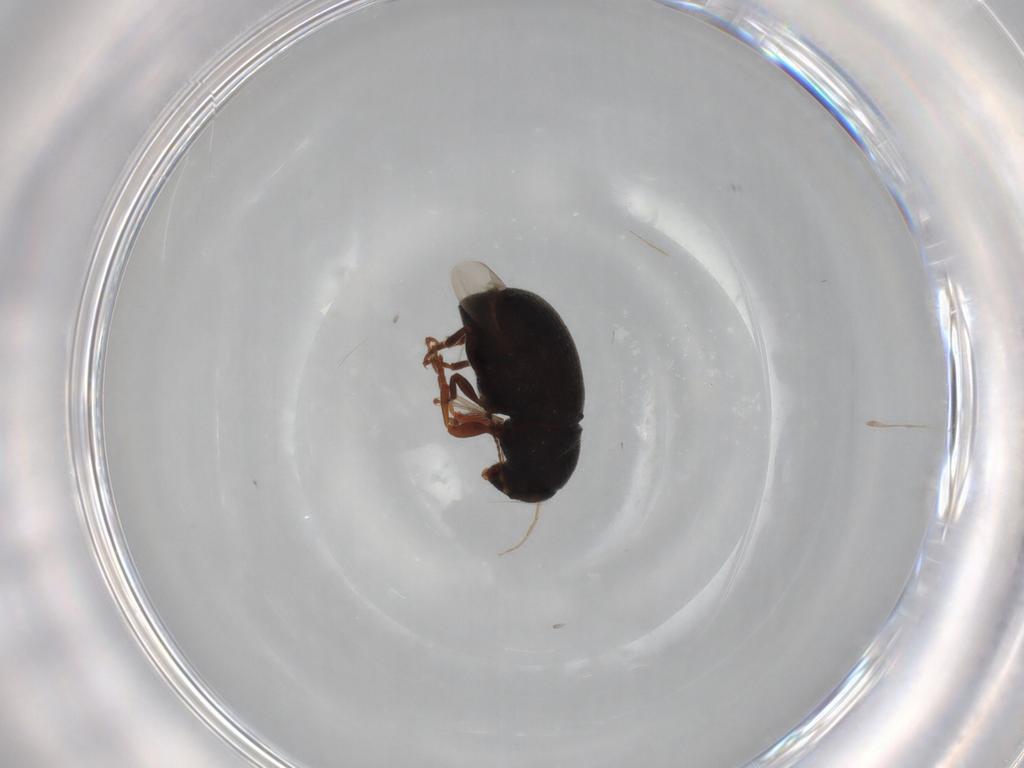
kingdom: Animalia
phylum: Arthropoda
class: Insecta
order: Coleoptera
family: Anthribidae
